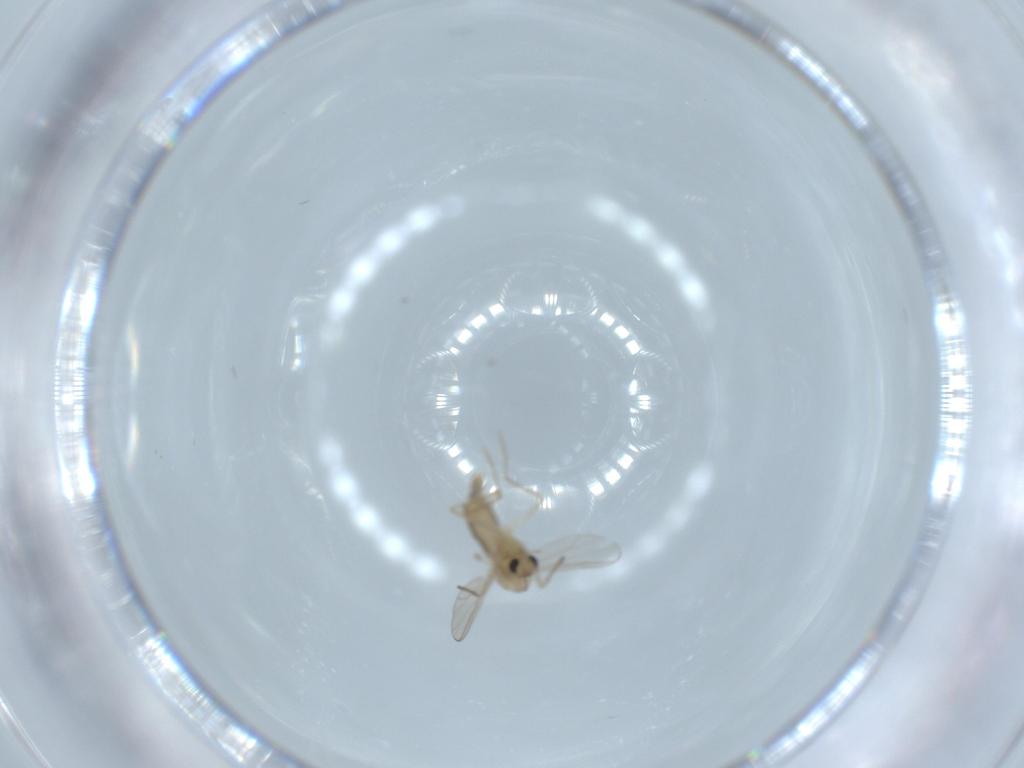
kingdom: Animalia
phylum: Arthropoda
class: Insecta
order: Diptera
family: Chironomidae
